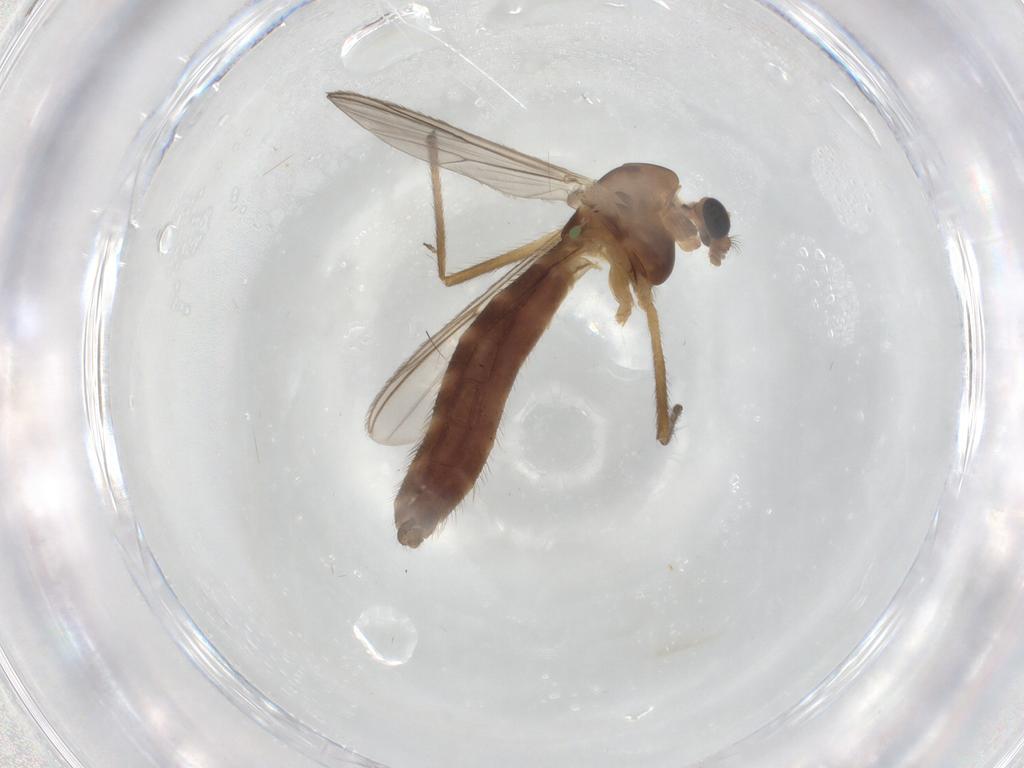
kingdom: Animalia
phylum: Arthropoda
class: Insecta
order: Diptera
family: Chironomidae
